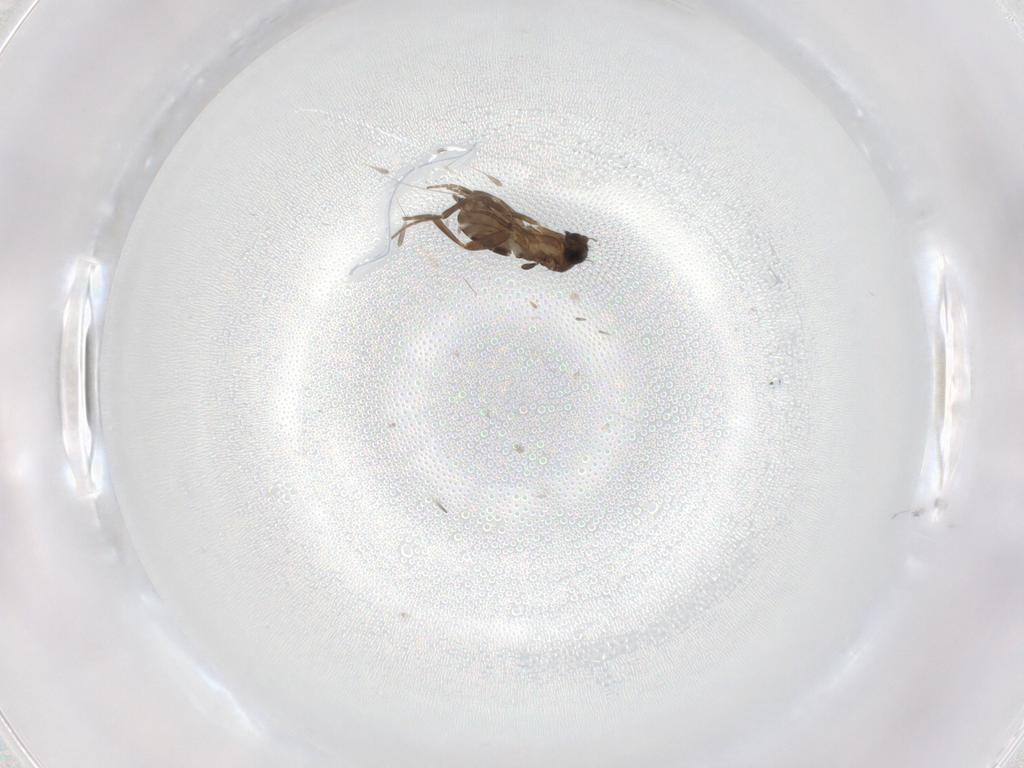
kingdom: Animalia
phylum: Arthropoda
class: Insecta
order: Diptera
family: Phoridae
